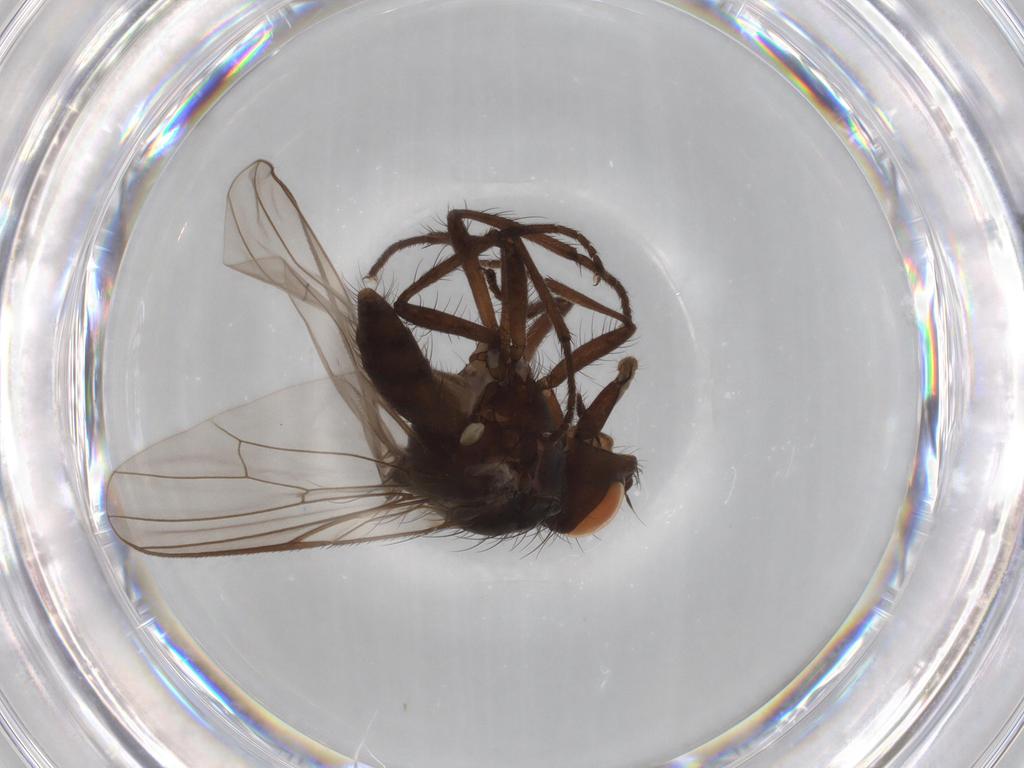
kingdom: Animalia
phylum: Arthropoda
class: Insecta
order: Diptera
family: Anthomyiidae
